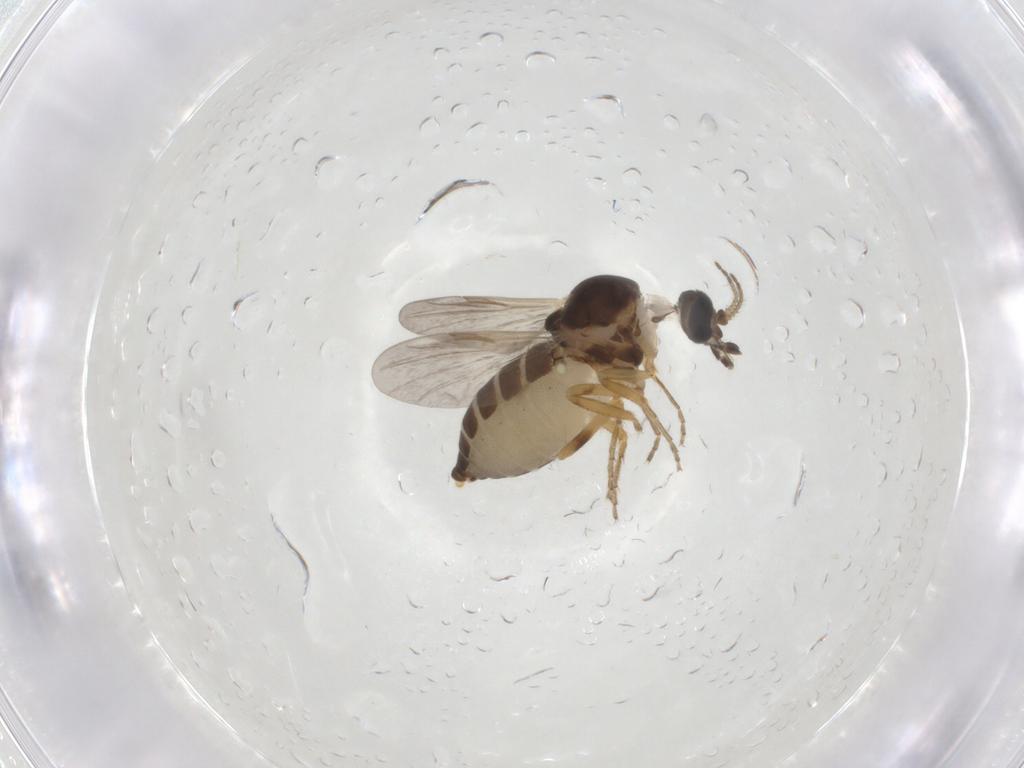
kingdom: Animalia
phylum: Arthropoda
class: Insecta
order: Diptera
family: Ceratopogonidae
